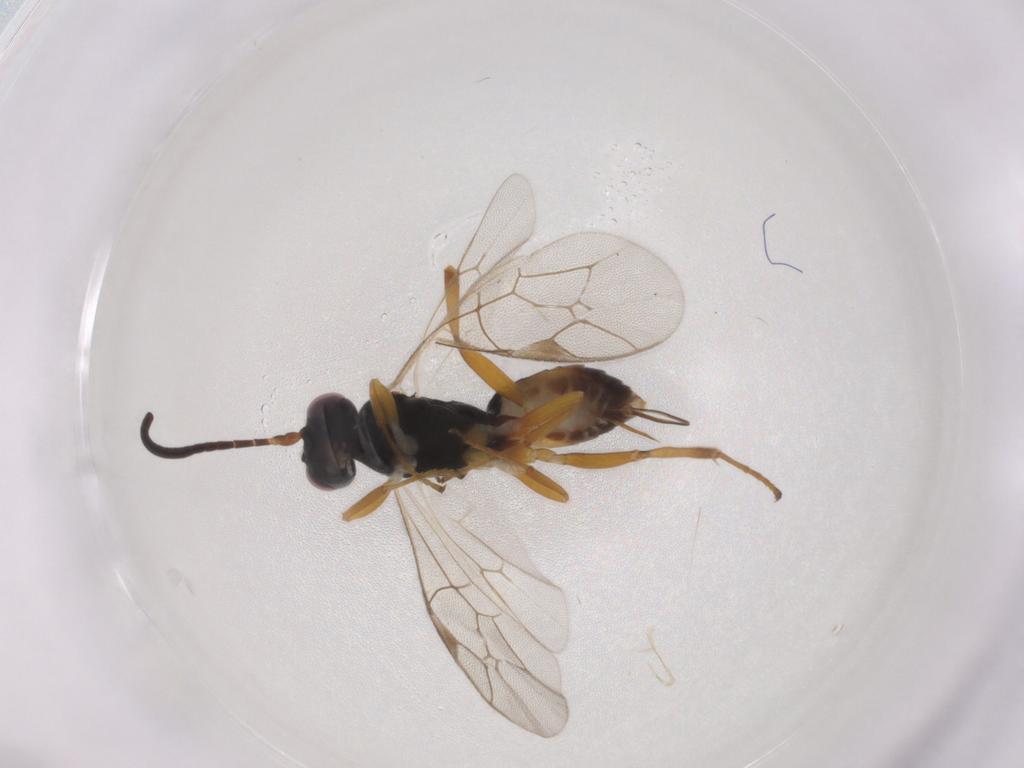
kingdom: Animalia
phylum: Arthropoda
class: Insecta
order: Hymenoptera
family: Ichneumonidae
